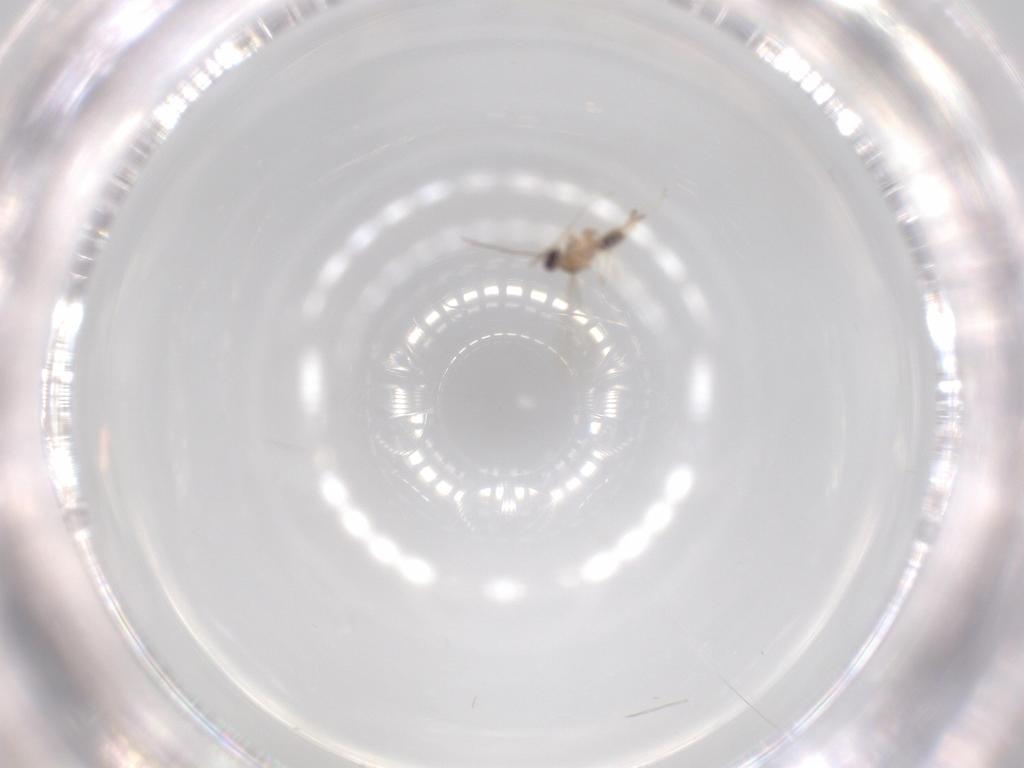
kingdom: Animalia
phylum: Arthropoda
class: Insecta
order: Diptera
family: Cecidomyiidae
